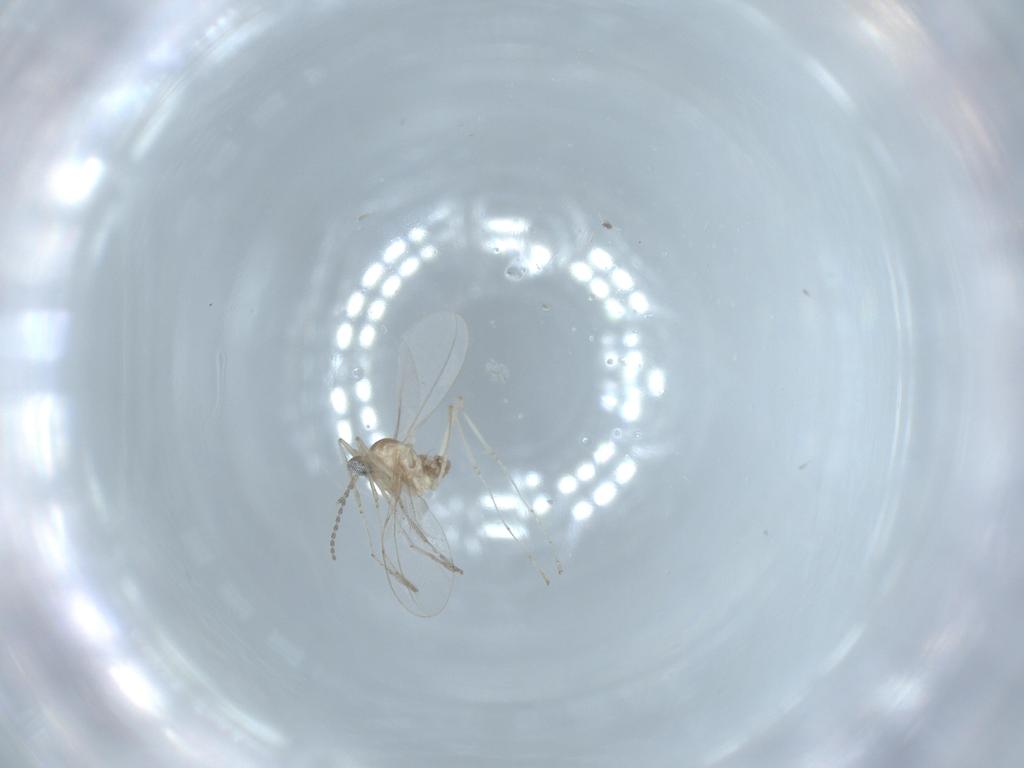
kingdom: Animalia
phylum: Arthropoda
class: Insecta
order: Diptera
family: Cecidomyiidae
